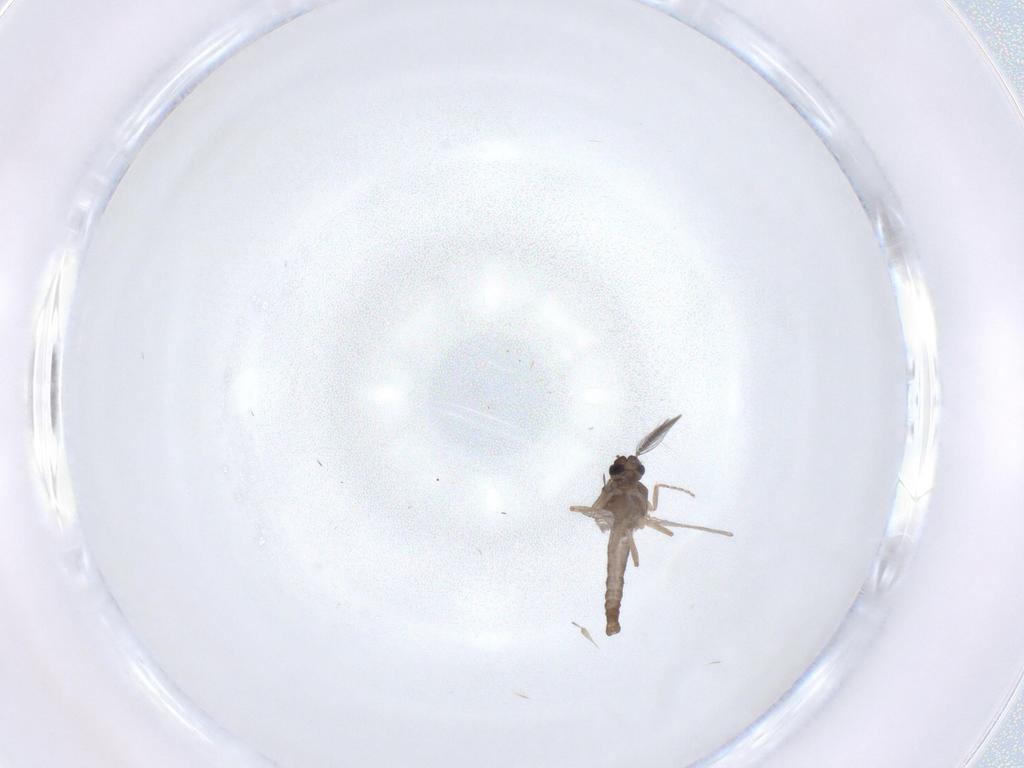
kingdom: Animalia
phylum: Arthropoda
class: Insecta
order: Diptera
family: Ceratopogonidae
